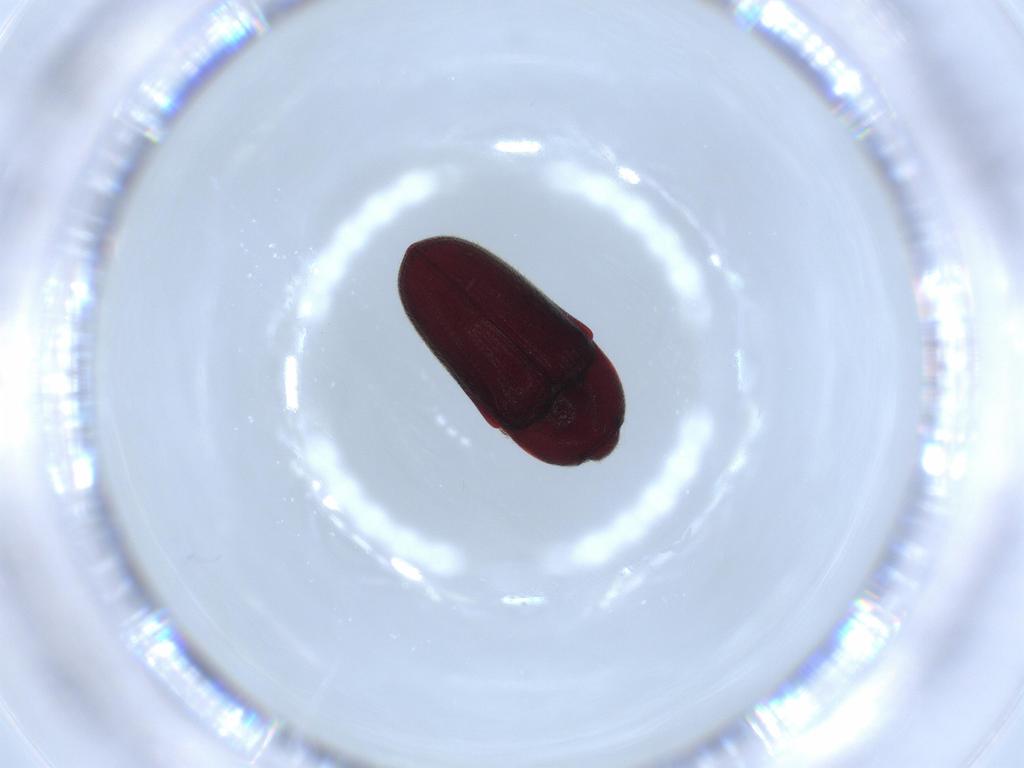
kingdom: Animalia
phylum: Arthropoda
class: Insecta
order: Coleoptera
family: Throscidae
